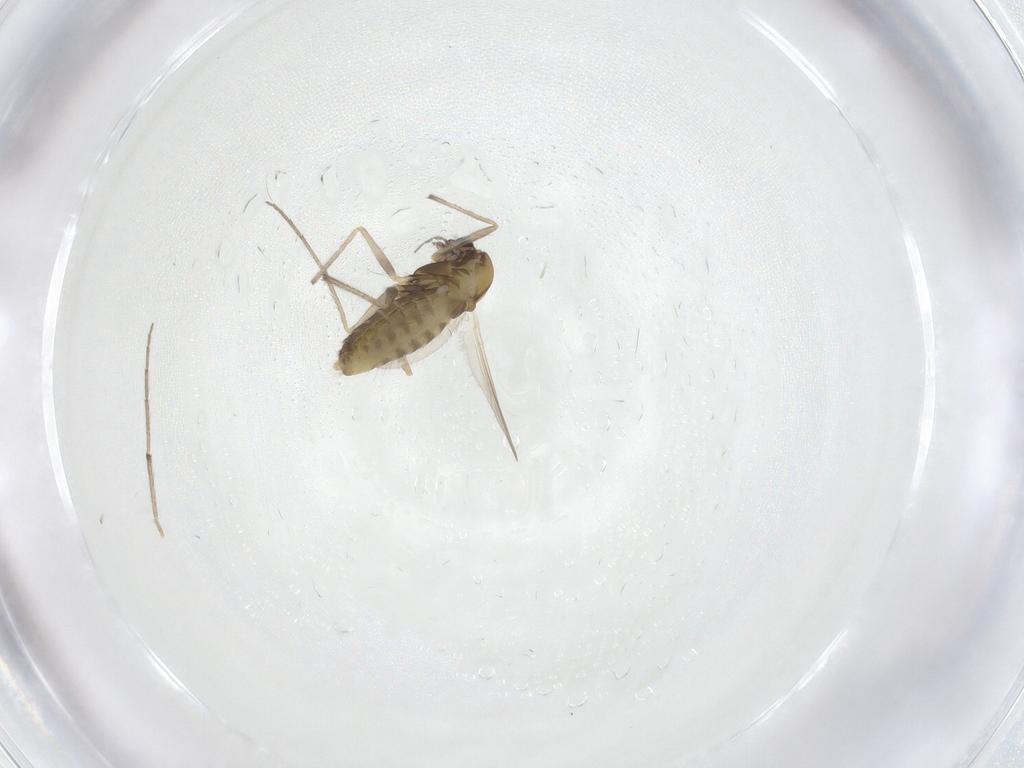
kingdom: Animalia
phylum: Arthropoda
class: Insecta
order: Diptera
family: Chironomidae
